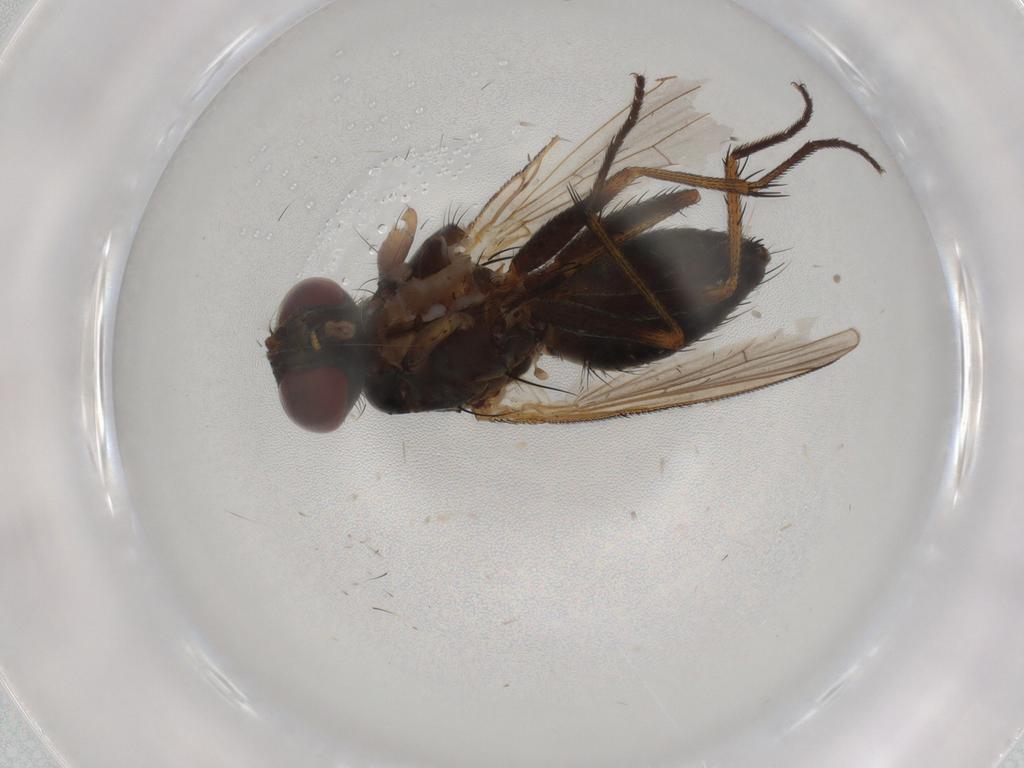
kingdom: Animalia
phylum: Arthropoda
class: Insecta
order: Diptera
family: Muscidae
